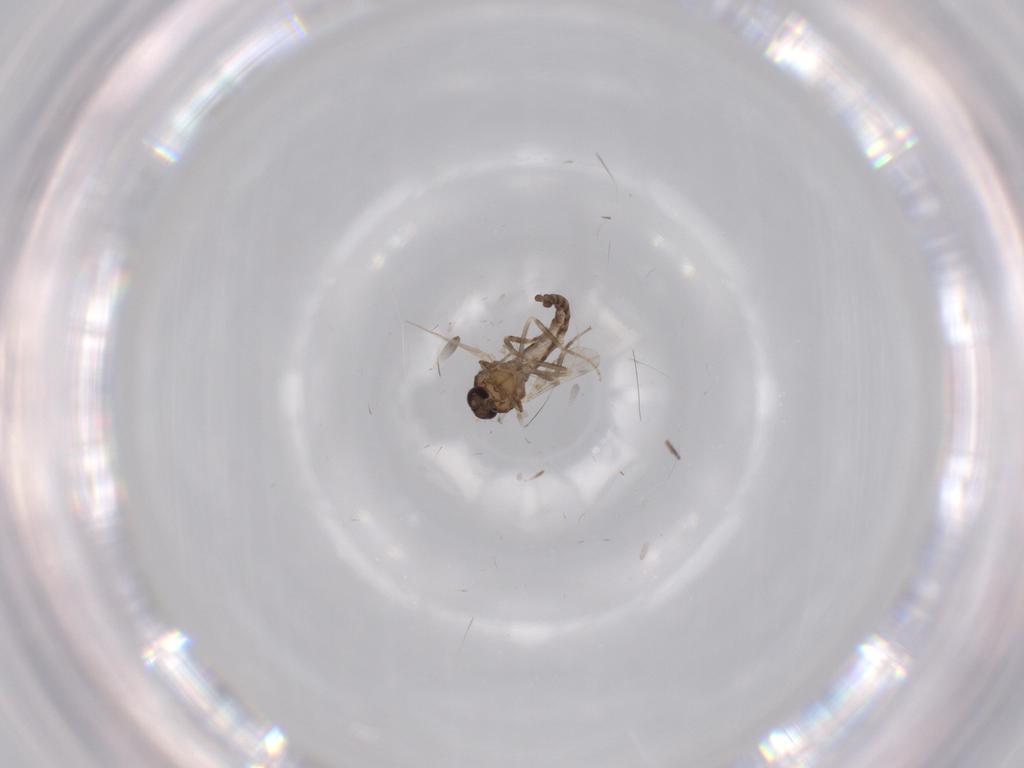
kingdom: Animalia
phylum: Arthropoda
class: Insecta
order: Diptera
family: Ceratopogonidae
